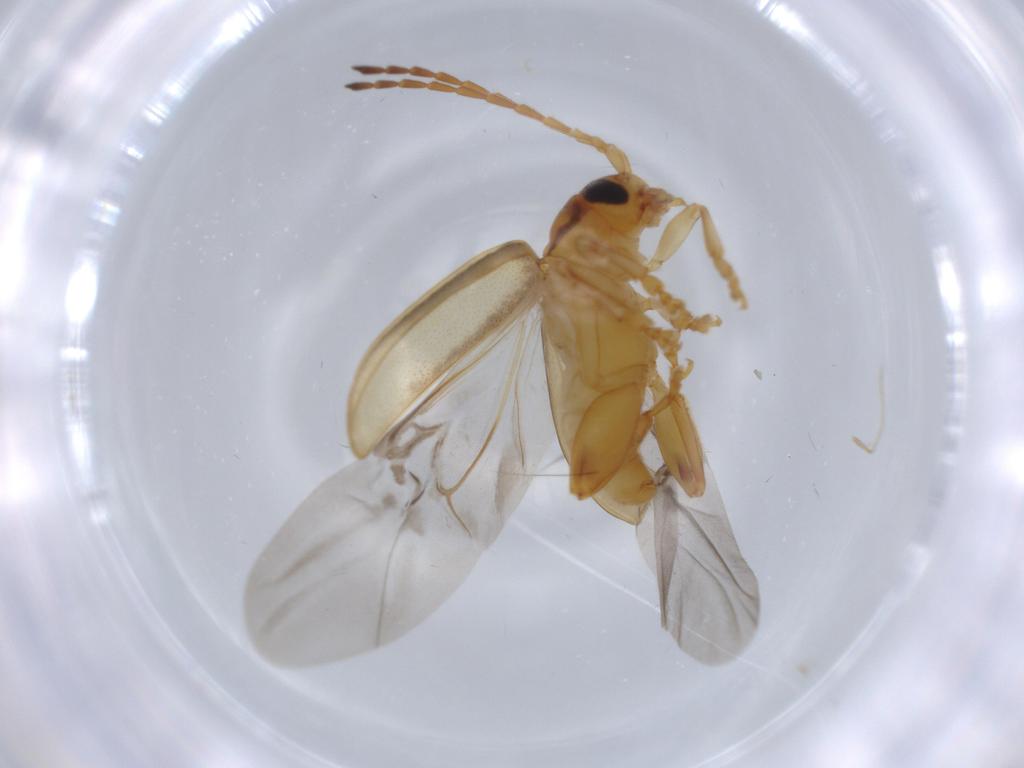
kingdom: Animalia
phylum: Arthropoda
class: Insecta
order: Coleoptera
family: Chrysomelidae
